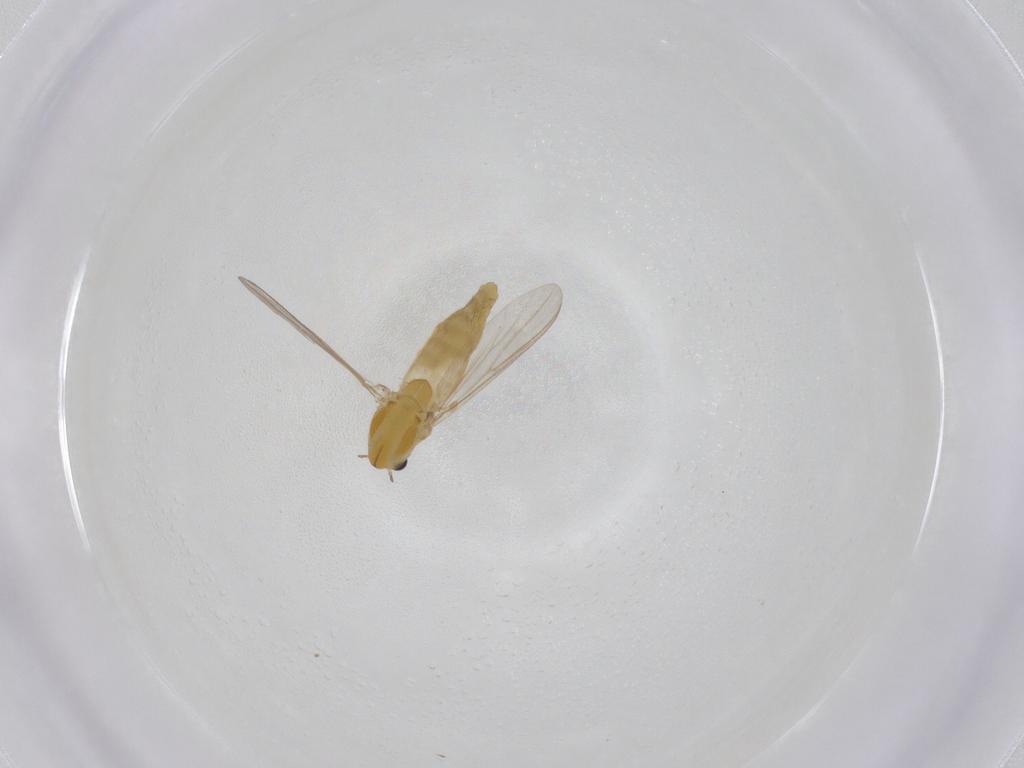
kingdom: Animalia
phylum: Arthropoda
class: Insecta
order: Diptera
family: Chironomidae
